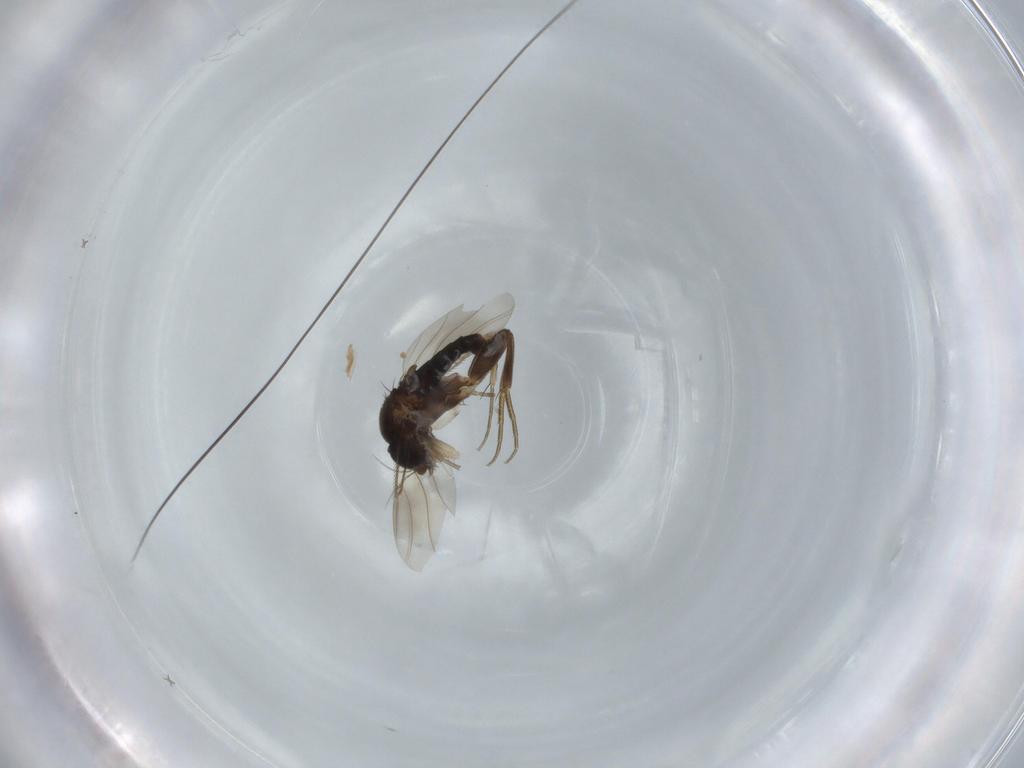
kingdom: Animalia
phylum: Arthropoda
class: Insecta
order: Diptera
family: Phoridae
